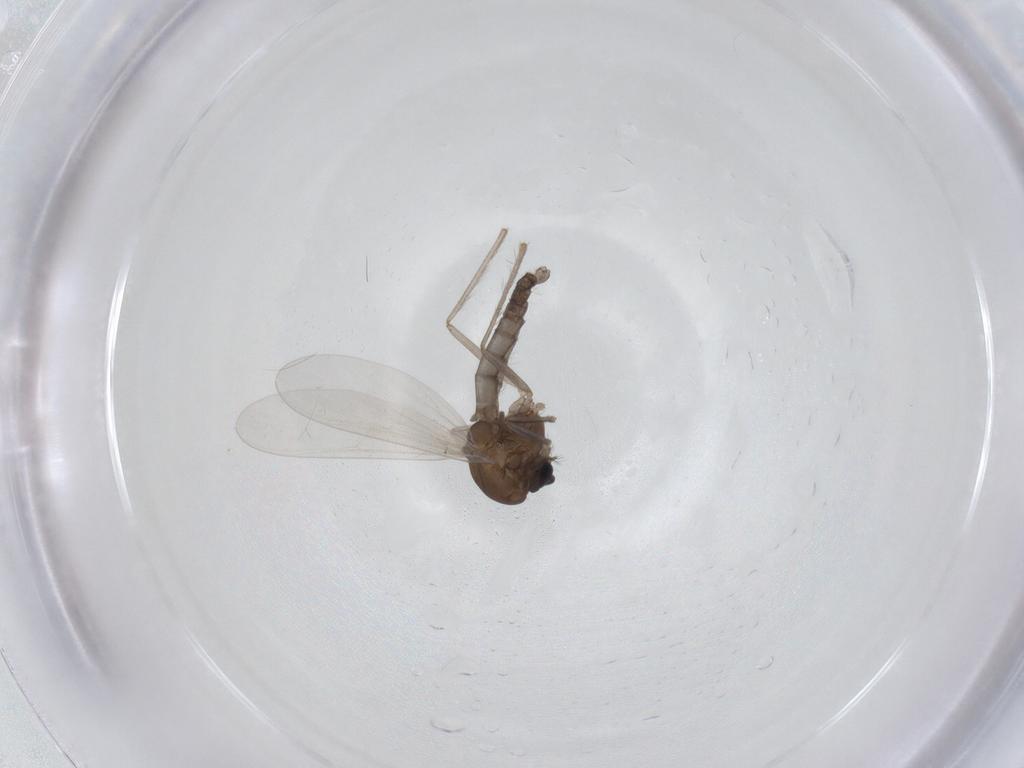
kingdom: Animalia
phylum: Arthropoda
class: Insecta
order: Diptera
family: Chironomidae
